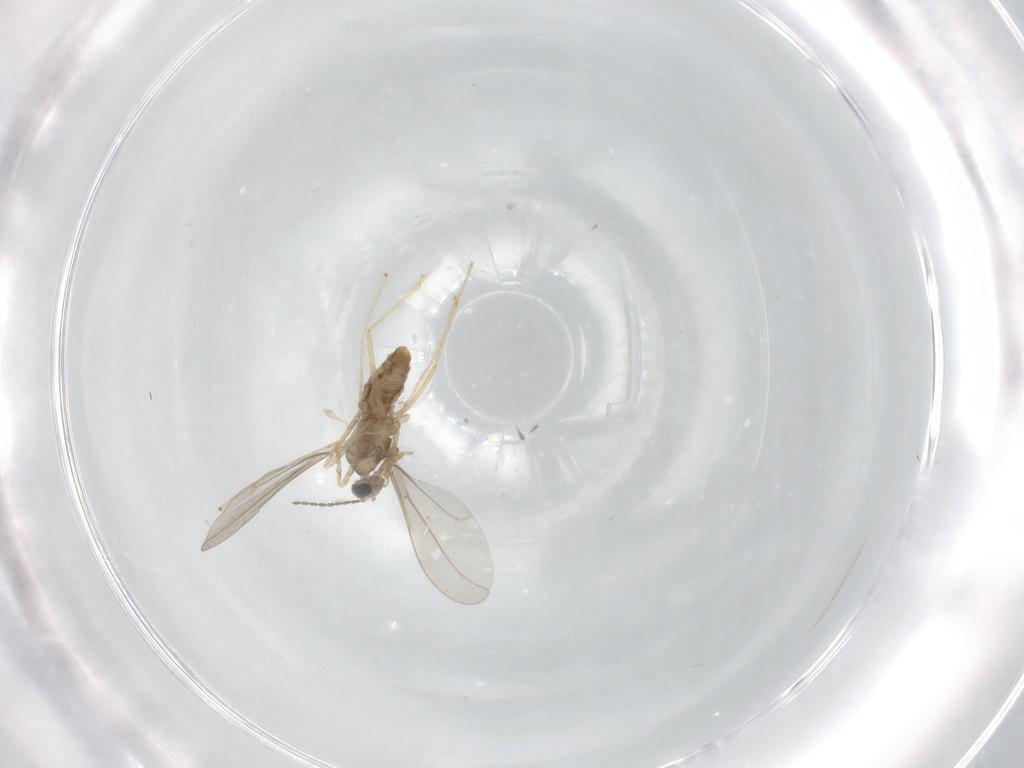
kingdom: Animalia
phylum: Arthropoda
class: Insecta
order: Diptera
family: Cecidomyiidae
